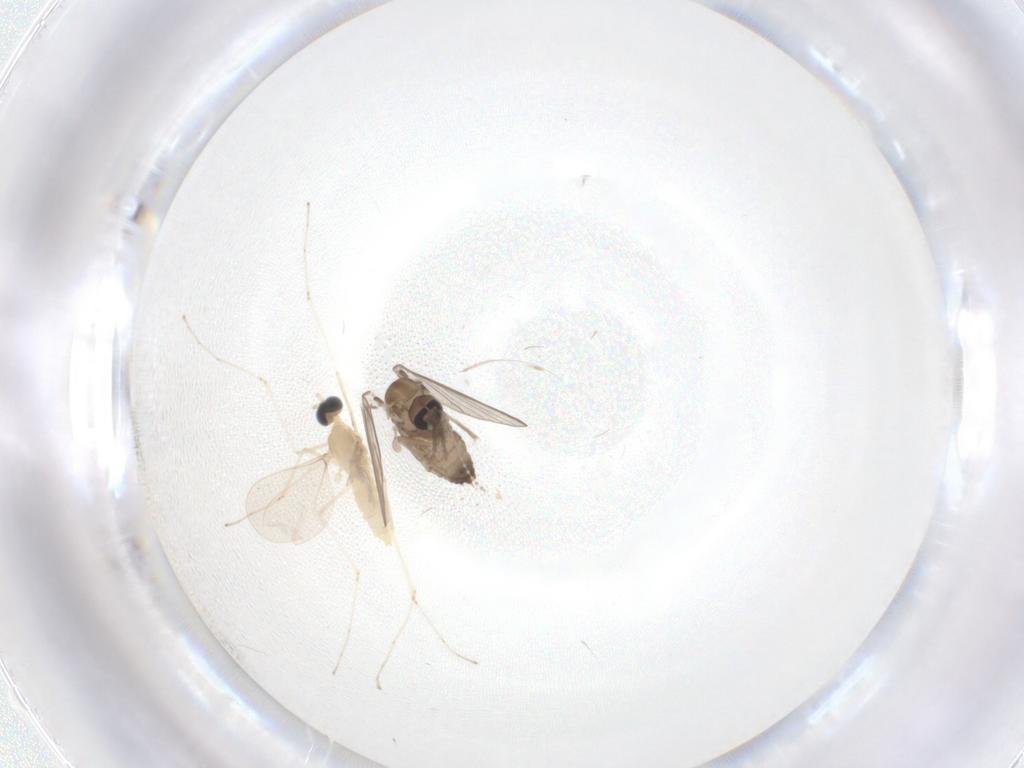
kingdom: Animalia
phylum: Arthropoda
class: Insecta
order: Diptera
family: Psychodidae
